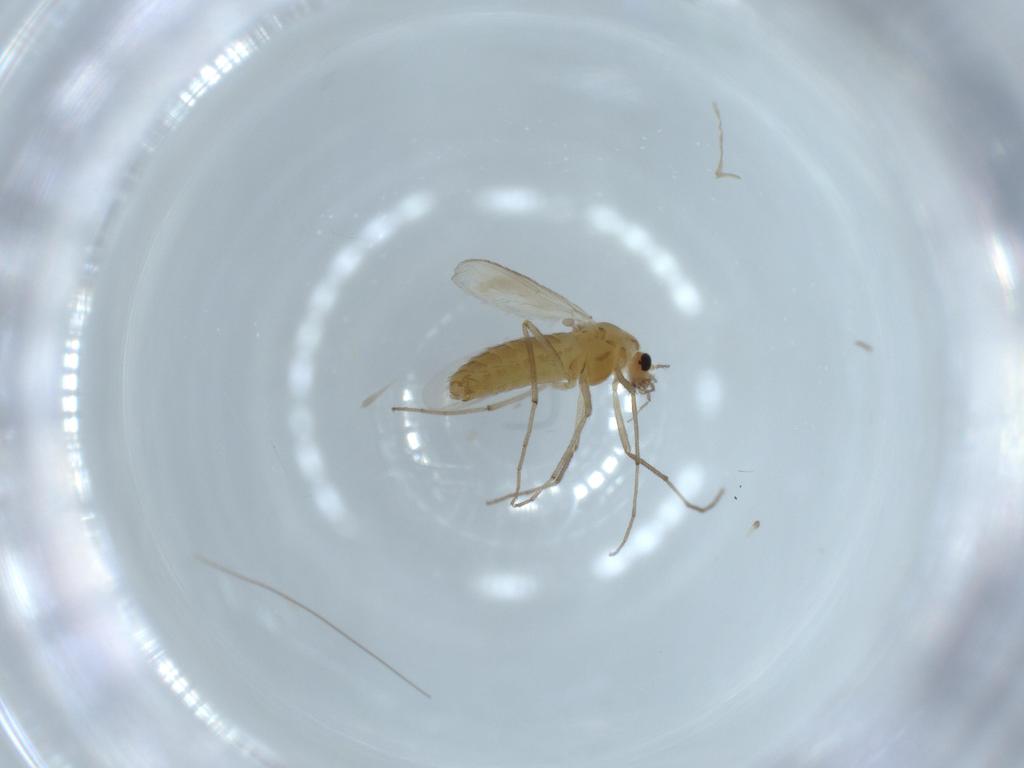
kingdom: Animalia
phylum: Arthropoda
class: Insecta
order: Diptera
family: Chironomidae
